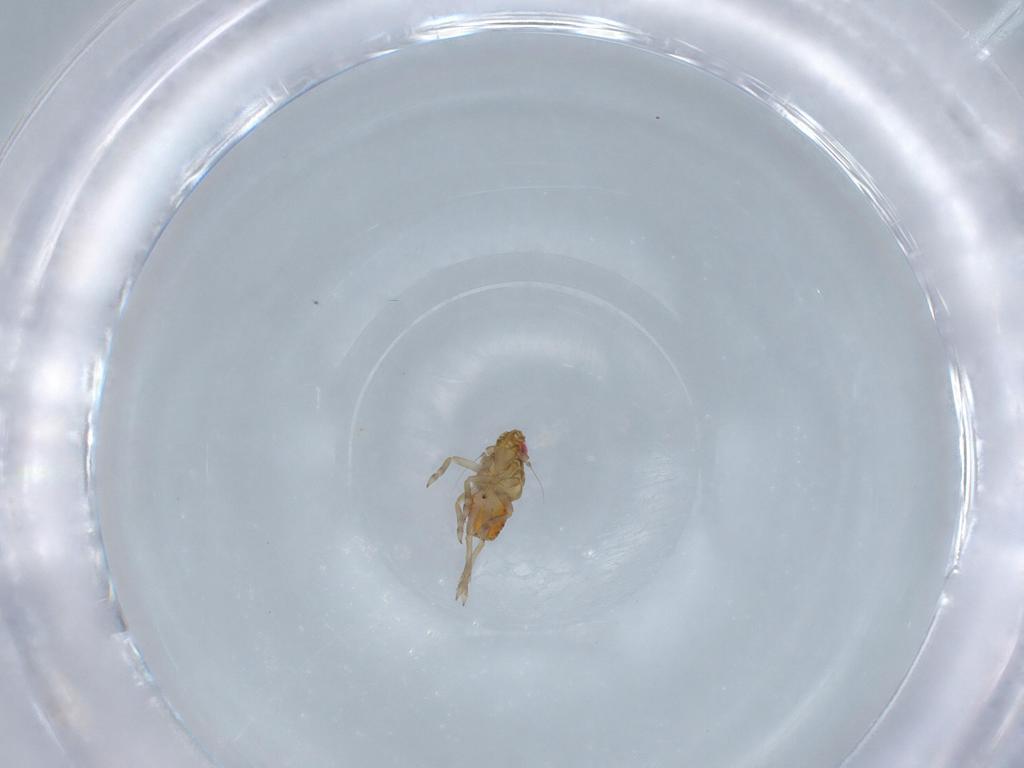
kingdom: Animalia
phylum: Arthropoda
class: Insecta
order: Hemiptera
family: Delphacidae
